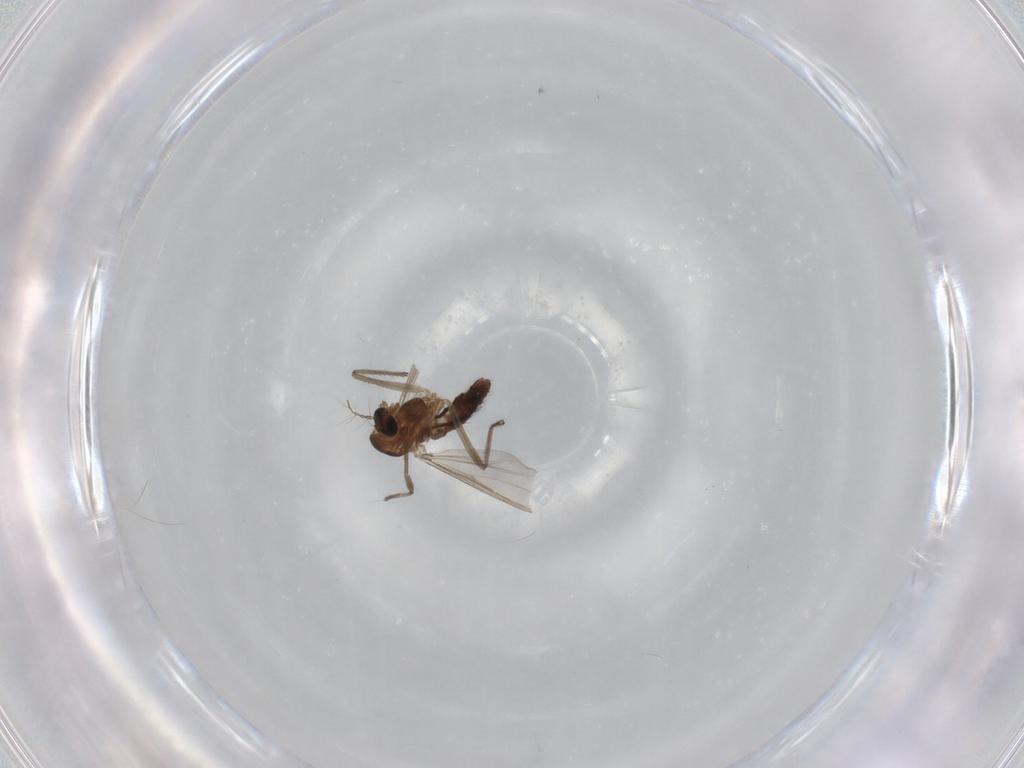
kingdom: Animalia
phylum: Arthropoda
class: Insecta
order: Diptera
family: Chironomidae
